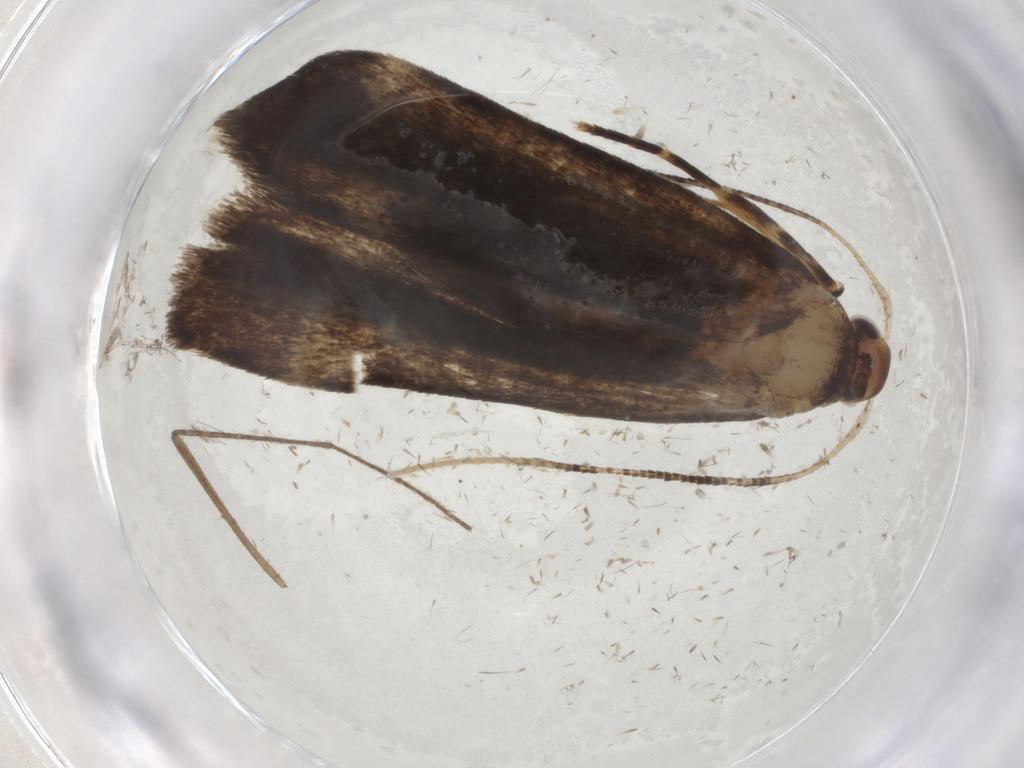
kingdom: Animalia
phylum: Arthropoda
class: Insecta
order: Lepidoptera
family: Gelechiidae
